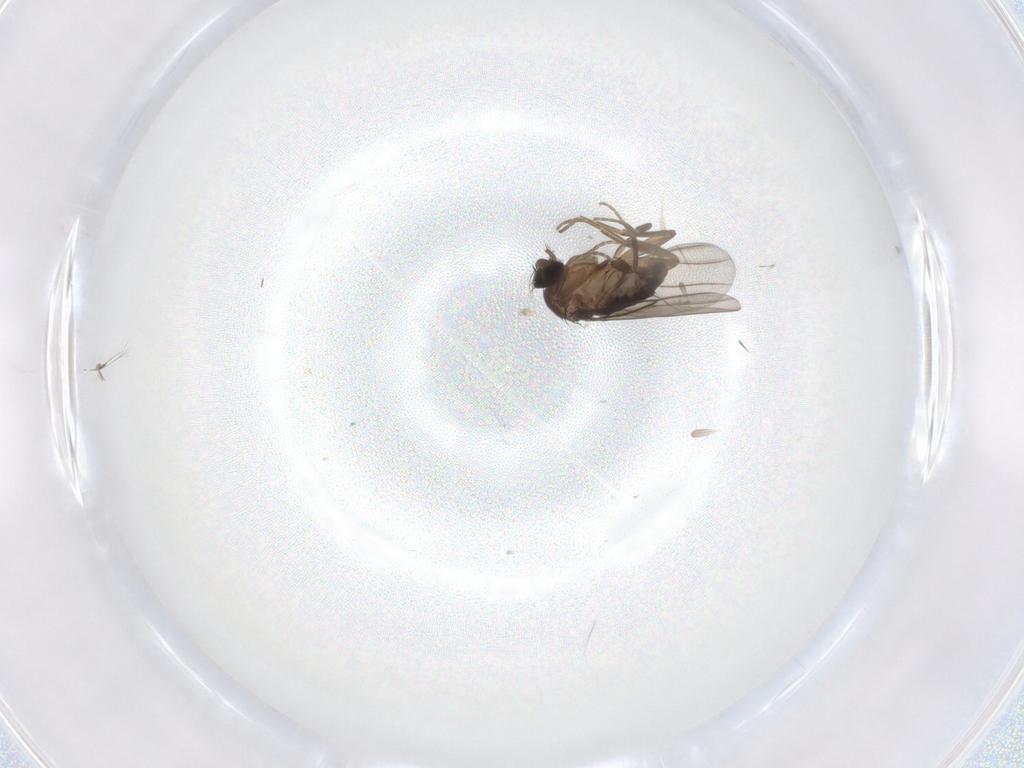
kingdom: Animalia
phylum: Arthropoda
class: Insecta
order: Diptera
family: Phoridae
